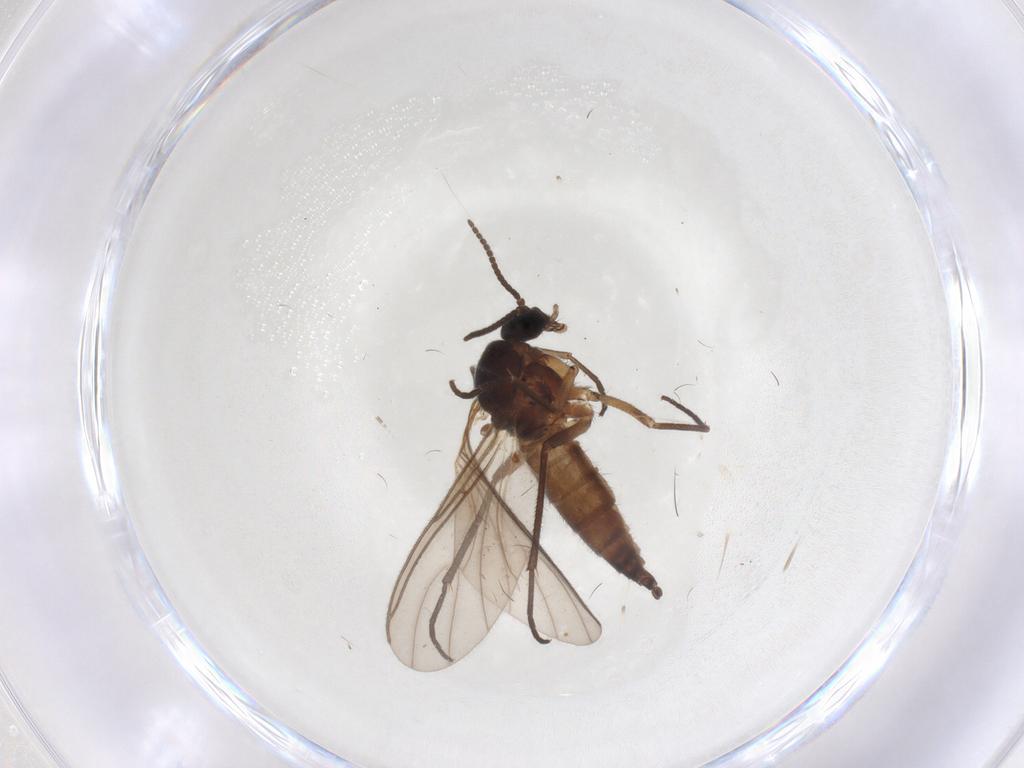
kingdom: Animalia
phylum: Arthropoda
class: Insecta
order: Diptera
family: Sciaridae
